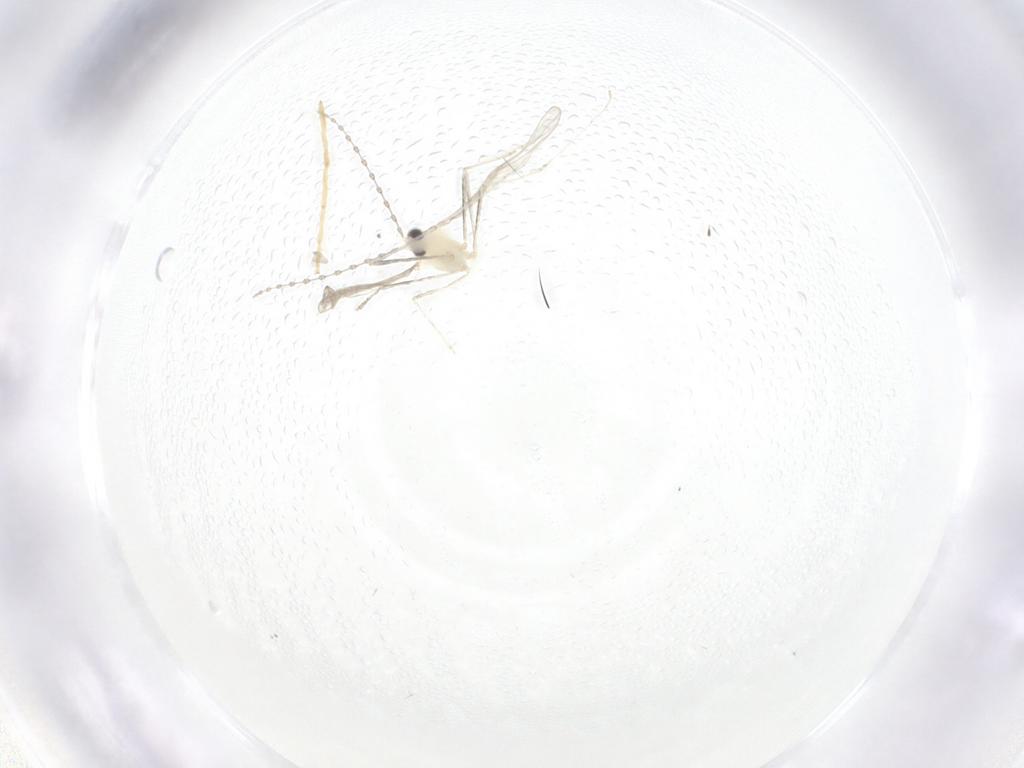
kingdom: Animalia
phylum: Arthropoda
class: Insecta
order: Diptera
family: Cecidomyiidae
